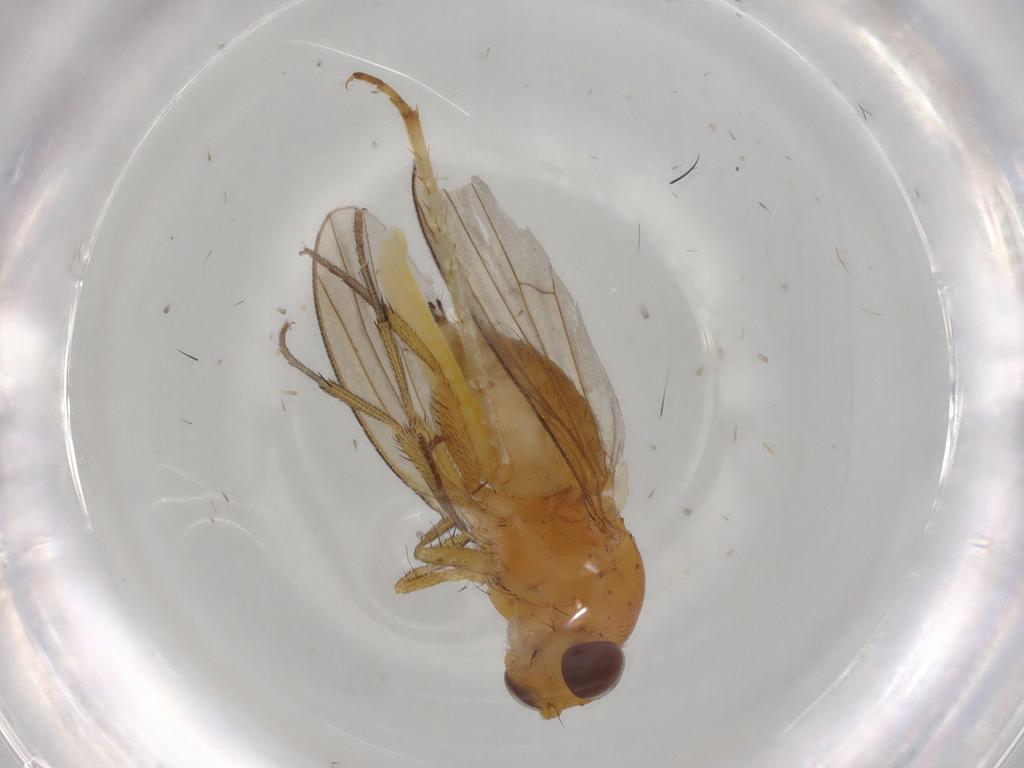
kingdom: Animalia
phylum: Arthropoda
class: Insecta
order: Diptera
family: Lauxaniidae
